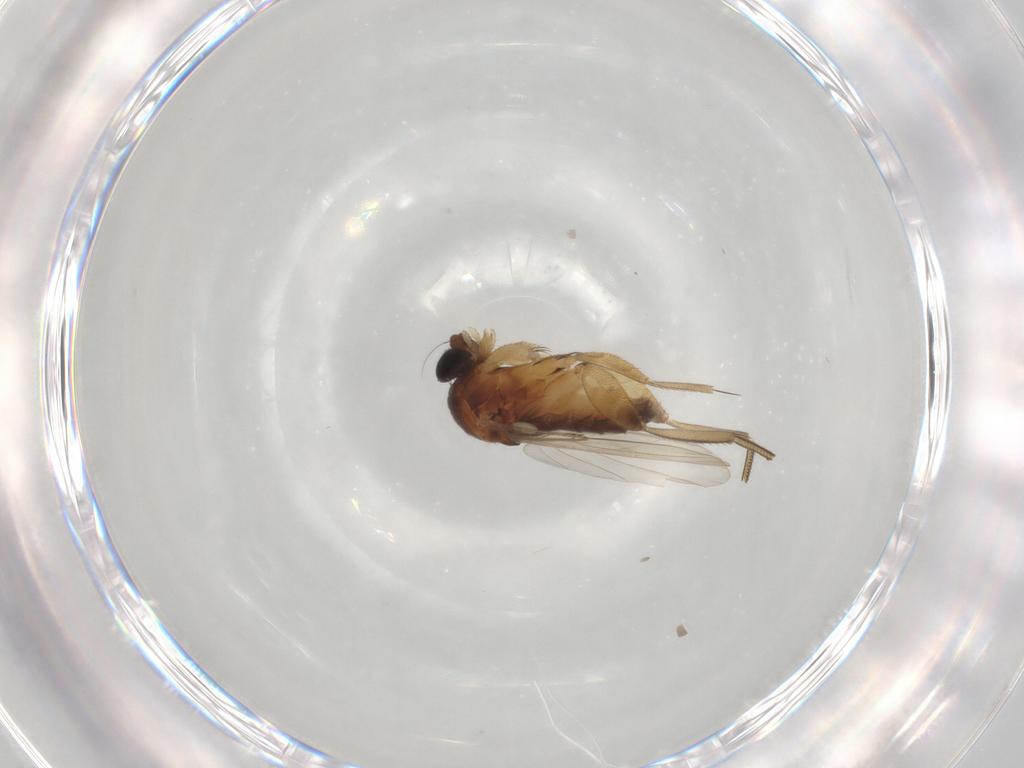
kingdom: Animalia
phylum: Arthropoda
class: Insecta
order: Diptera
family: Phoridae
